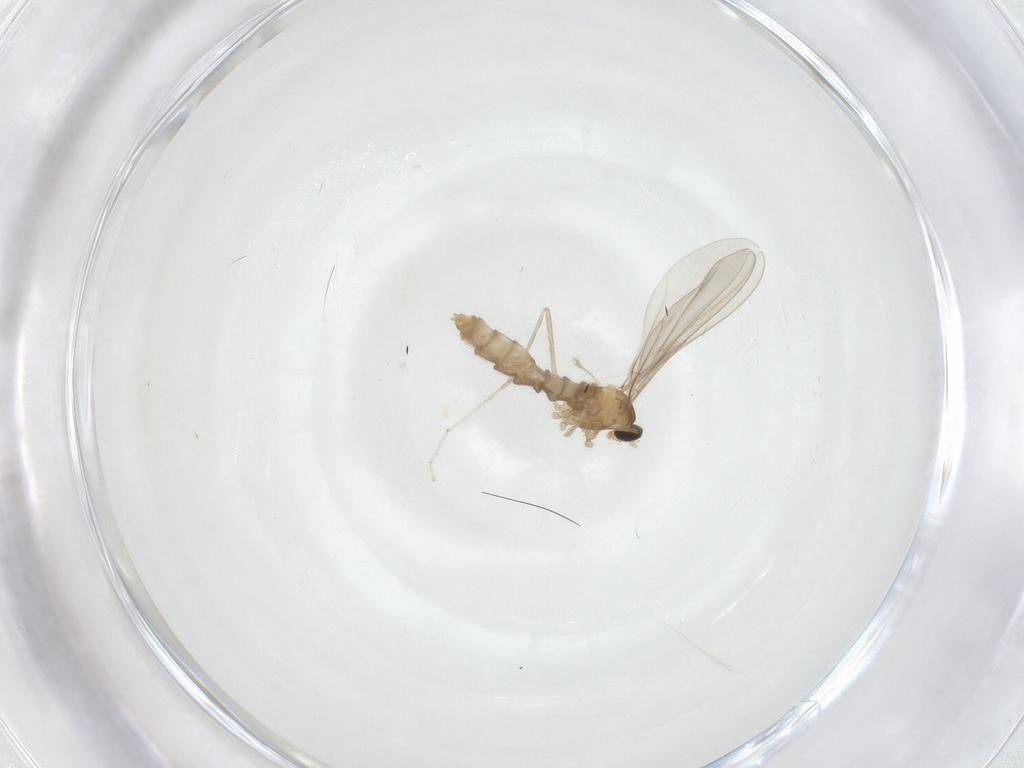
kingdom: Animalia
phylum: Arthropoda
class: Insecta
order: Diptera
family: Cecidomyiidae
